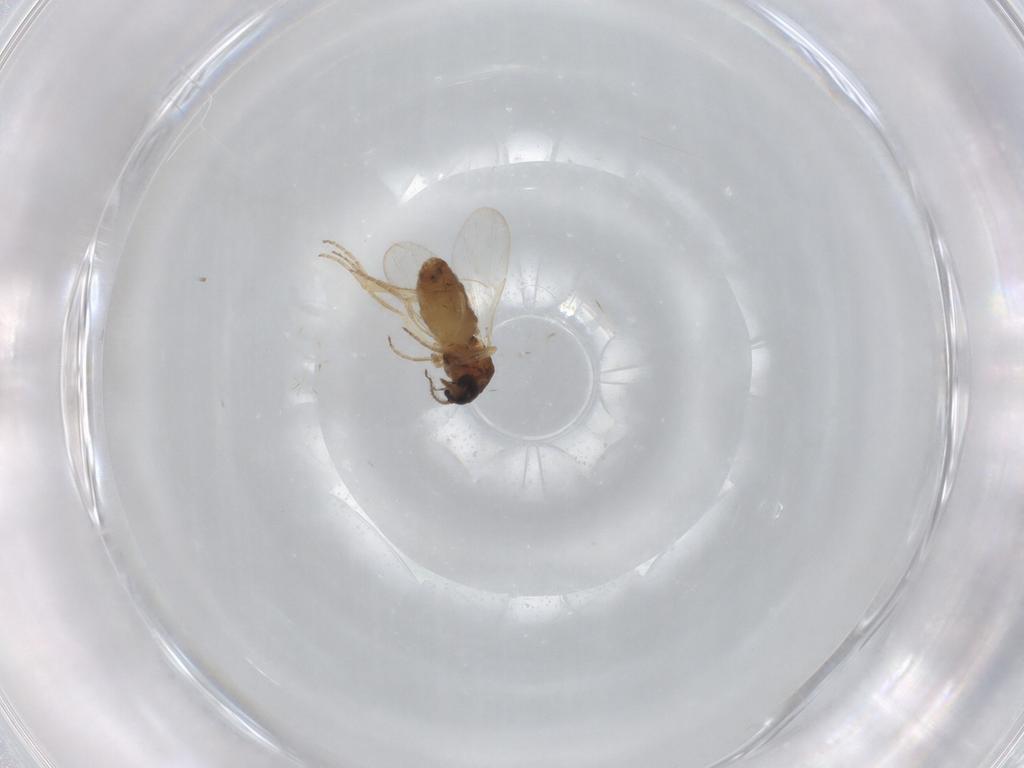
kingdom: Animalia
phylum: Arthropoda
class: Insecta
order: Diptera
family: Ceratopogonidae
